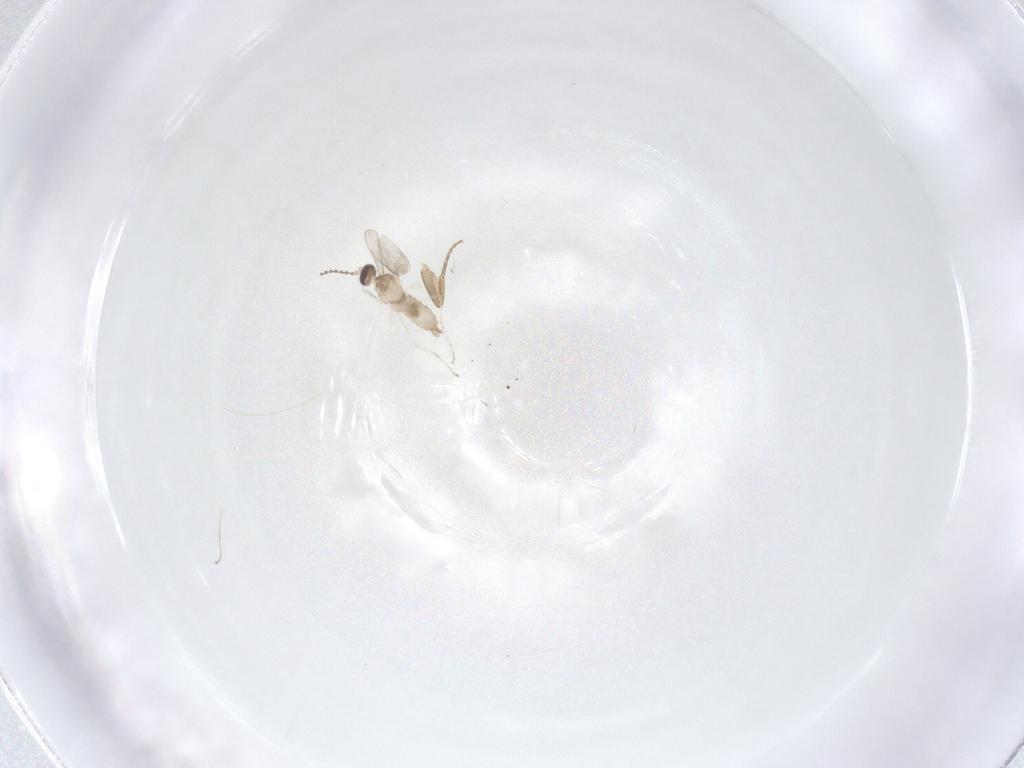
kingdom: Animalia
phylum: Arthropoda
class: Insecta
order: Diptera
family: Phoridae
